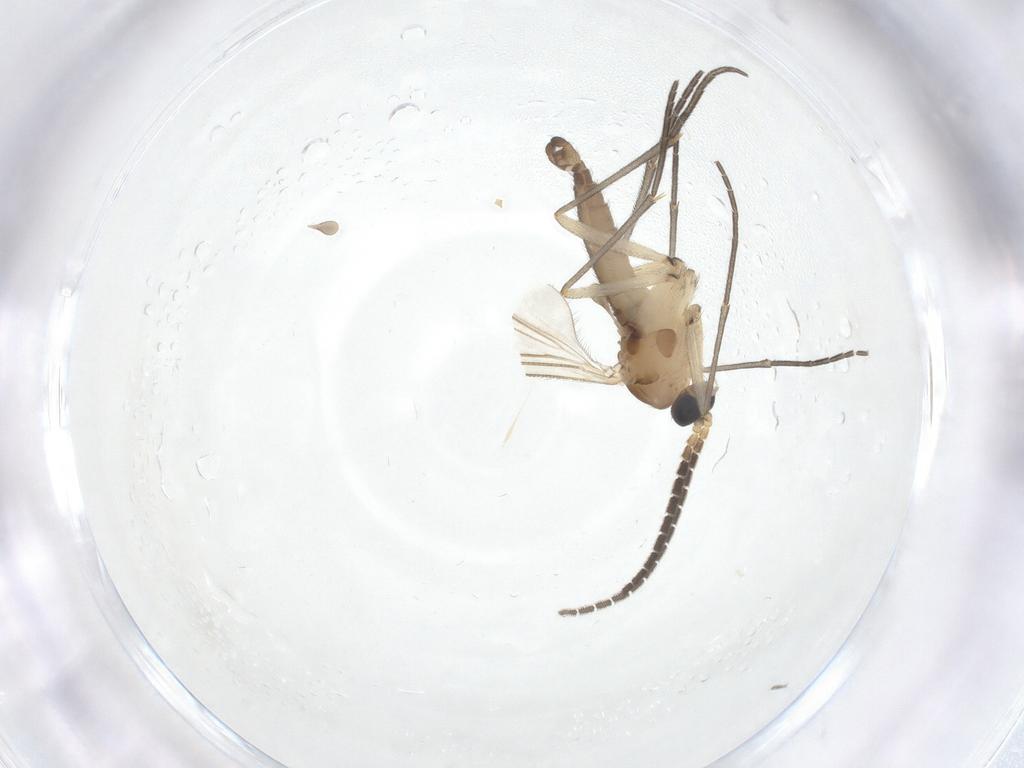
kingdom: Animalia
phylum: Arthropoda
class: Insecta
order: Diptera
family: Sciaridae
